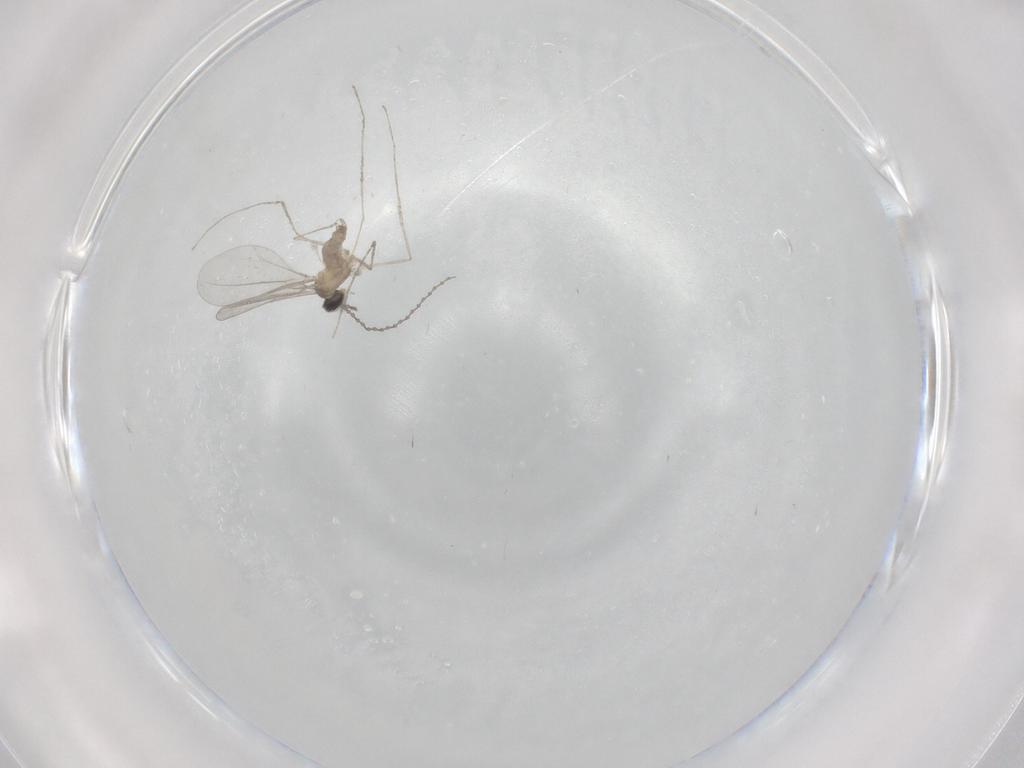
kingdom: Animalia
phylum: Arthropoda
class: Insecta
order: Diptera
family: Cecidomyiidae
